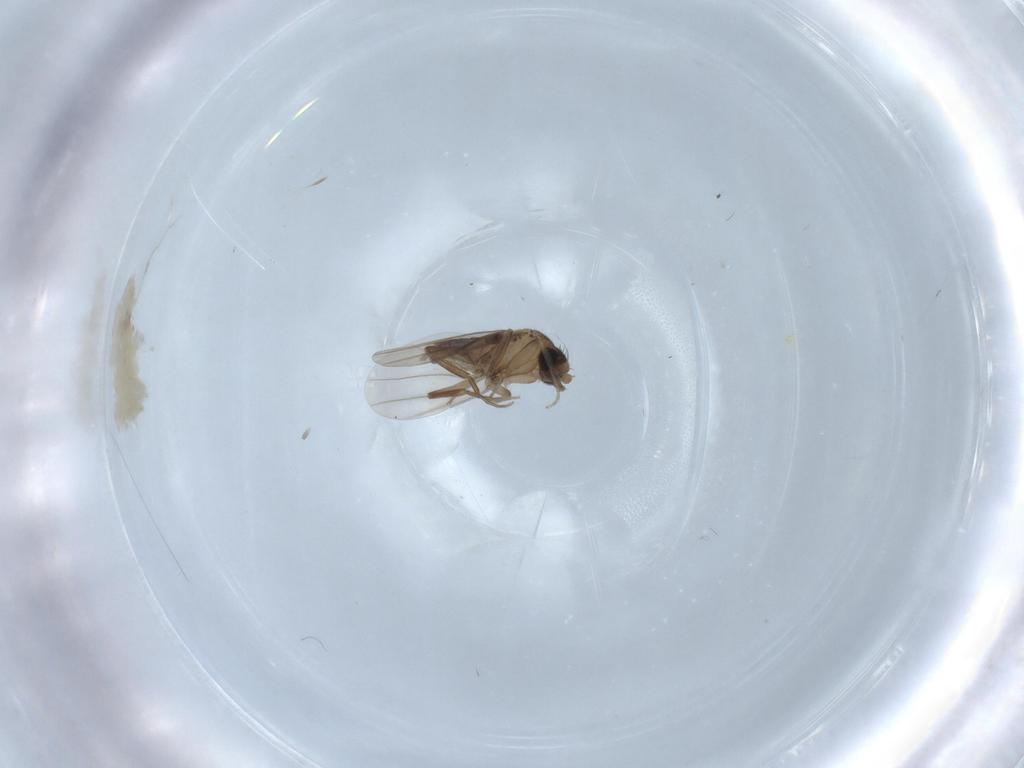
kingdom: Animalia
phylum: Arthropoda
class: Insecta
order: Diptera
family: Phoridae
